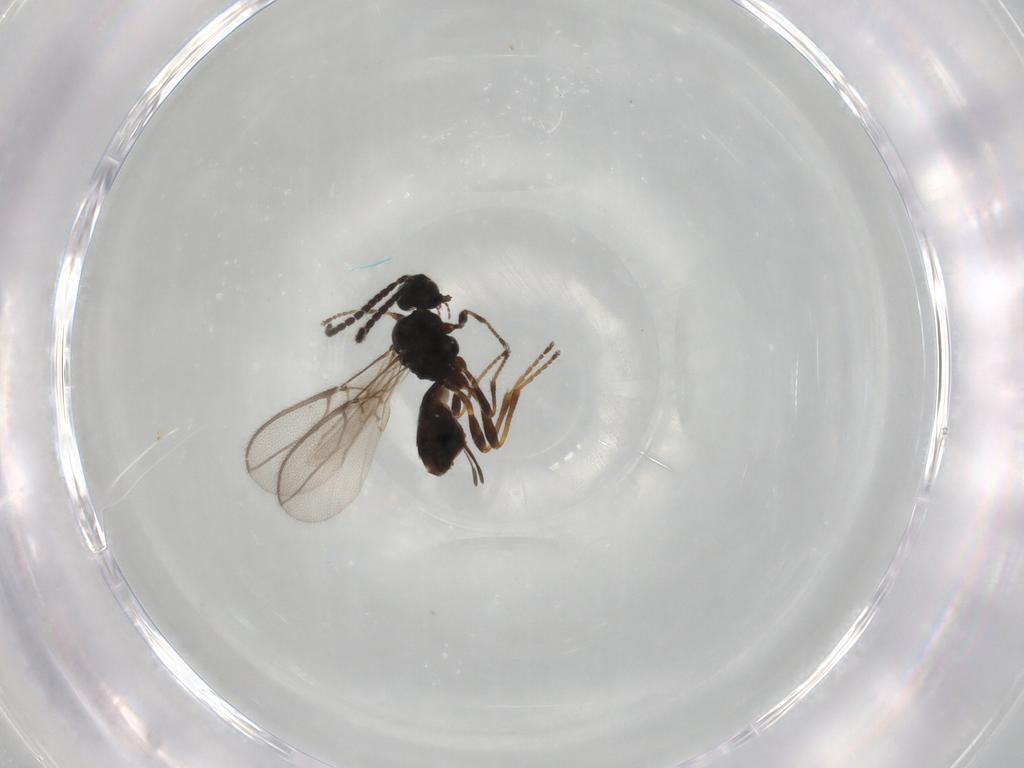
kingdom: Animalia
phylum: Arthropoda
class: Insecta
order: Hymenoptera
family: Braconidae
